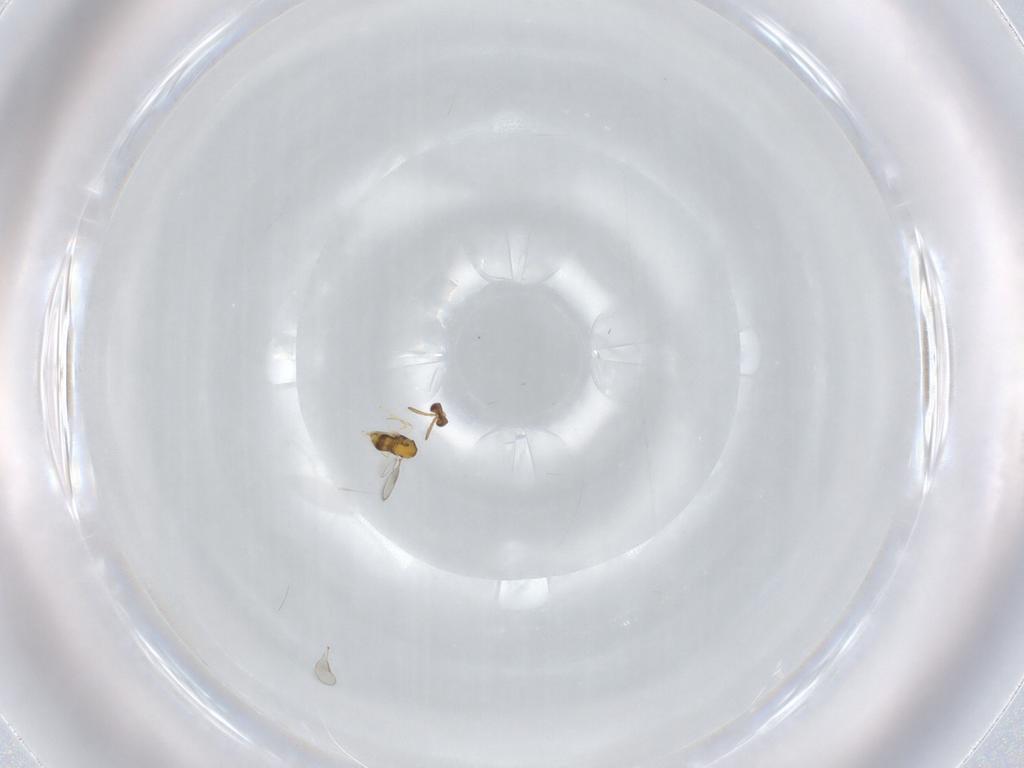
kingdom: Animalia
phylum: Arthropoda
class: Insecta
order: Hymenoptera
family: Aphelinidae
